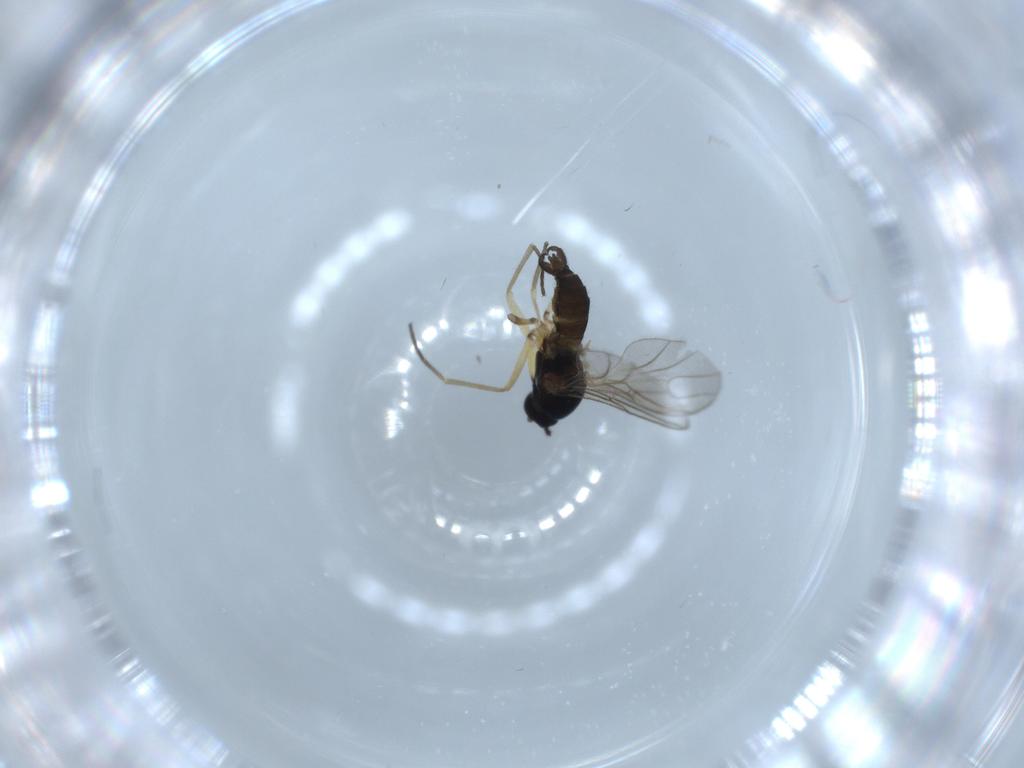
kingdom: Animalia
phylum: Arthropoda
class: Insecta
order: Diptera
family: Sciaridae
